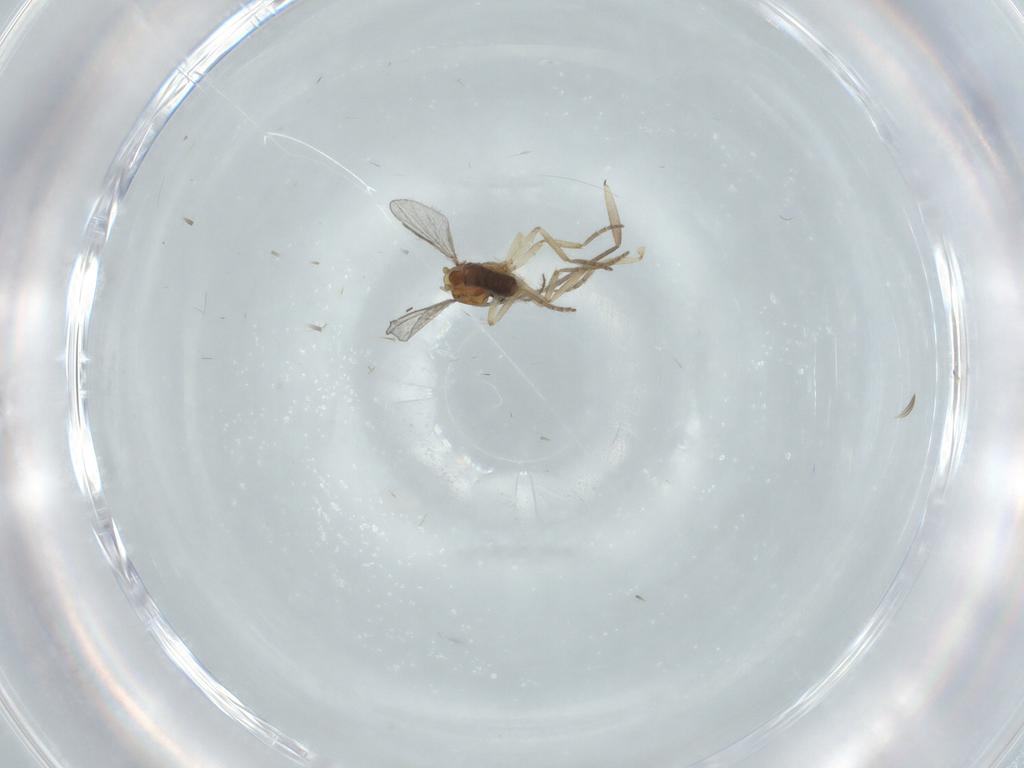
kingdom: Animalia
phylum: Arthropoda
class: Insecta
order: Diptera
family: Sciaridae
